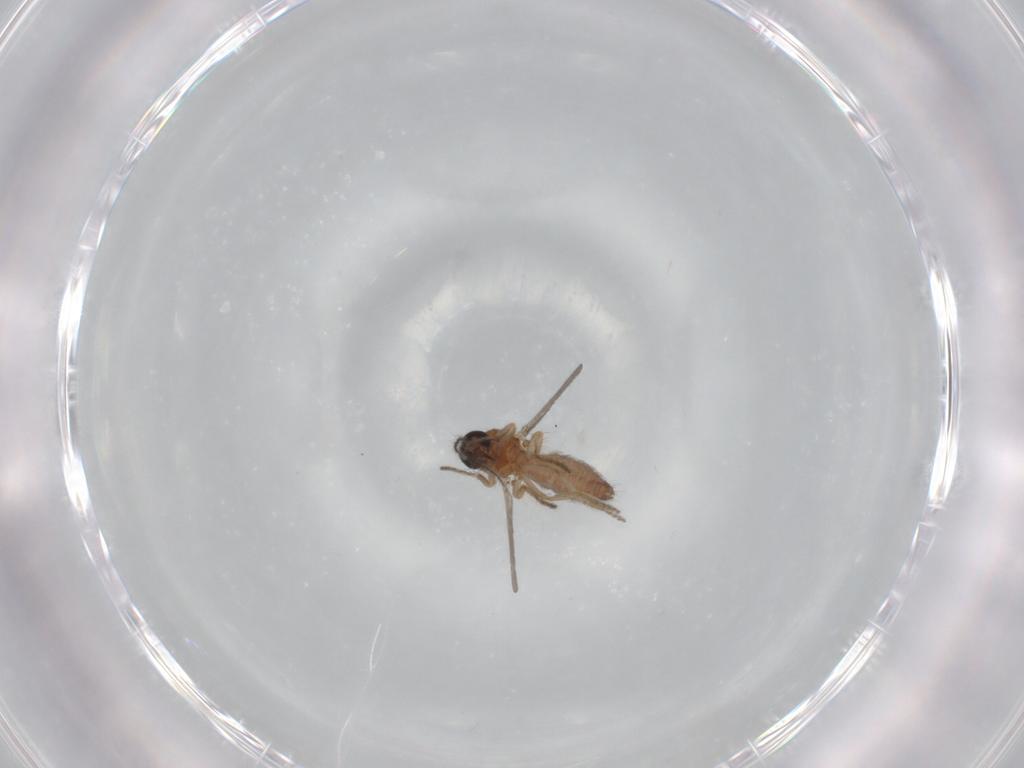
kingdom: Animalia
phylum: Arthropoda
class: Insecta
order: Diptera
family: Ceratopogonidae
